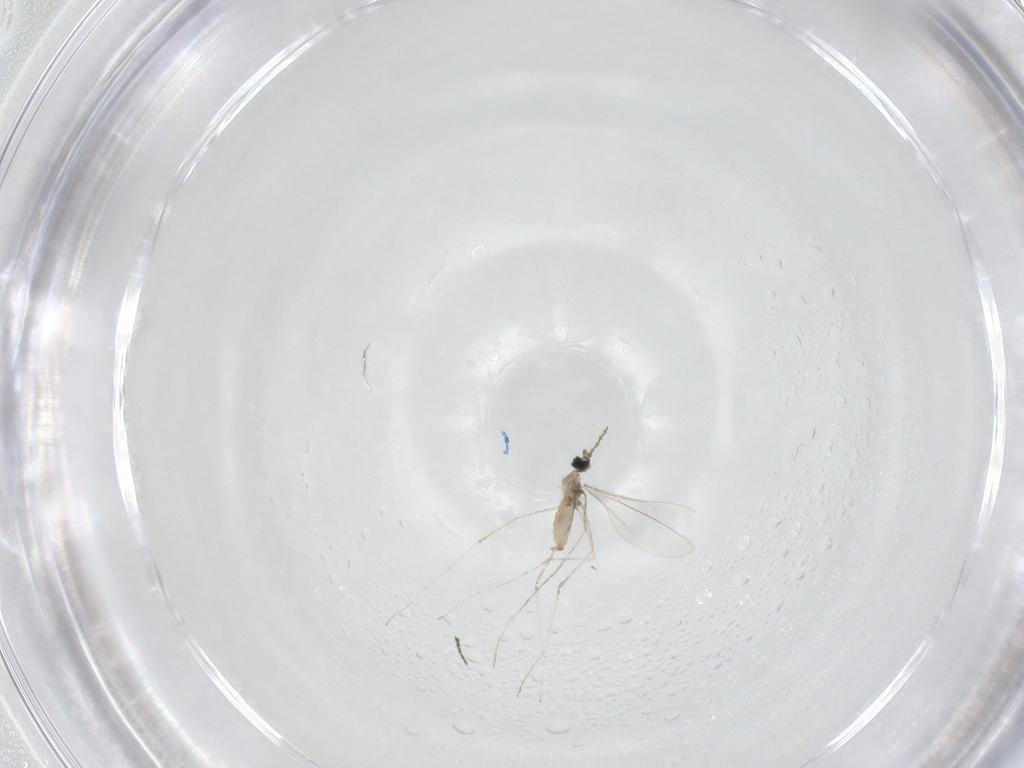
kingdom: Animalia
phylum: Arthropoda
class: Insecta
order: Diptera
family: Cecidomyiidae
